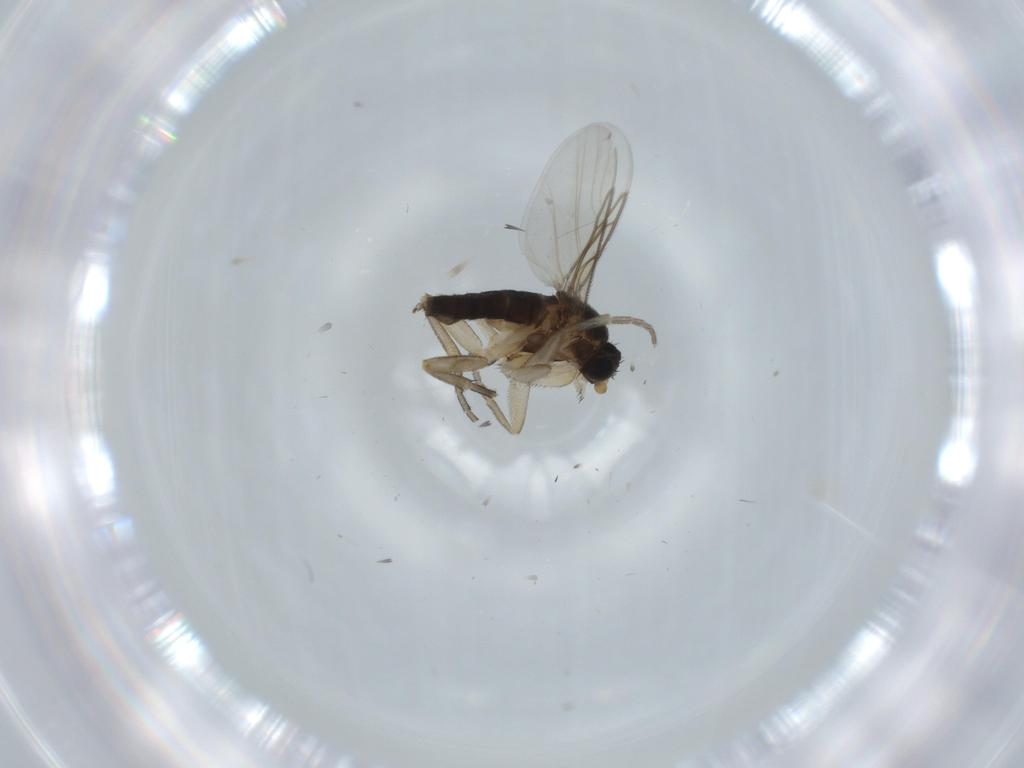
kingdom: Animalia
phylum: Arthropoda
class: Insecta
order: Diptera
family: Phoridae
